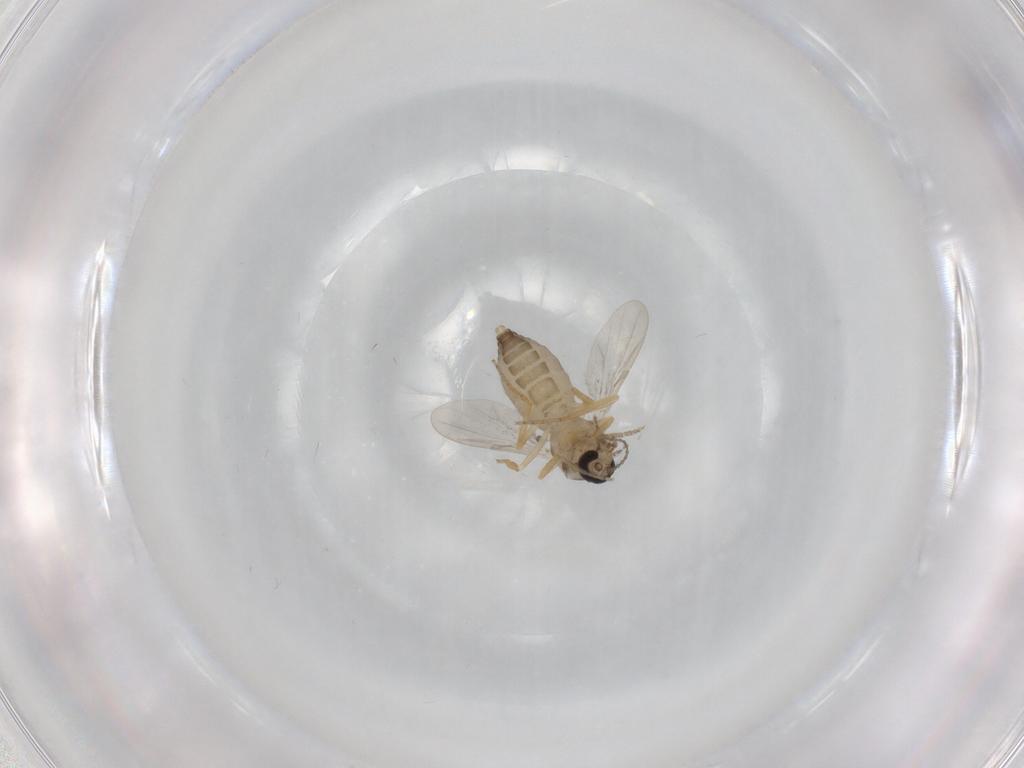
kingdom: Animalia
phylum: Arthropoda
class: Insecta
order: Diptera
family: Ceratopogonidae
